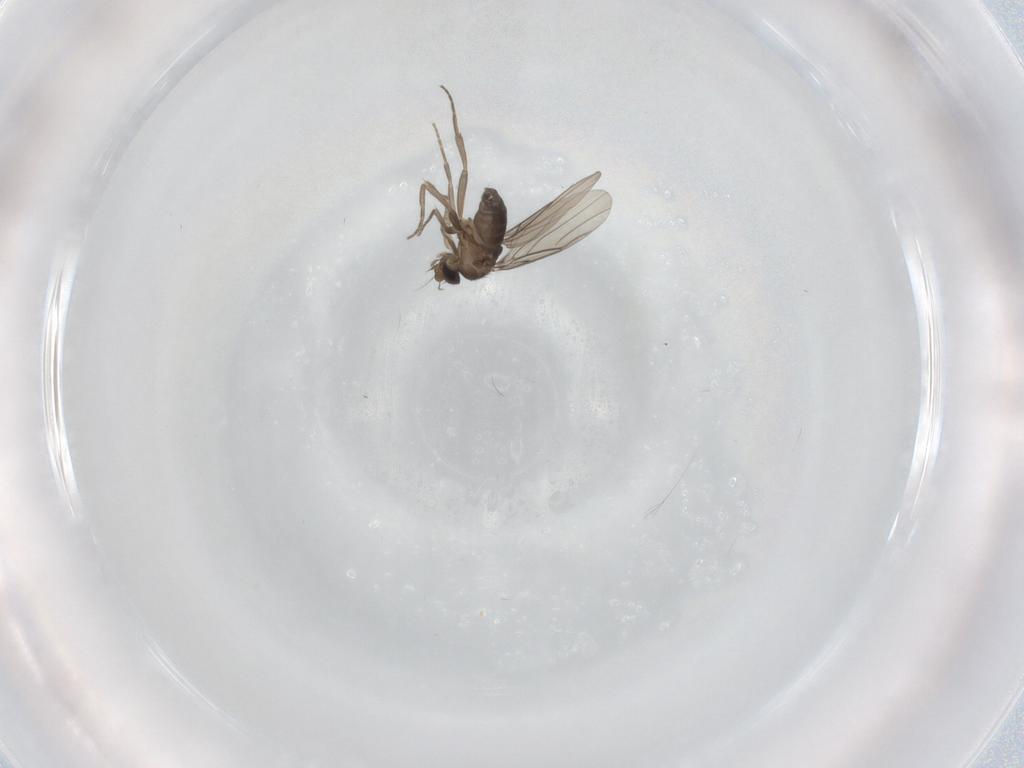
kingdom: Animalia
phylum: Arthropoda
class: Insecta
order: Diptera
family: Phoridae
